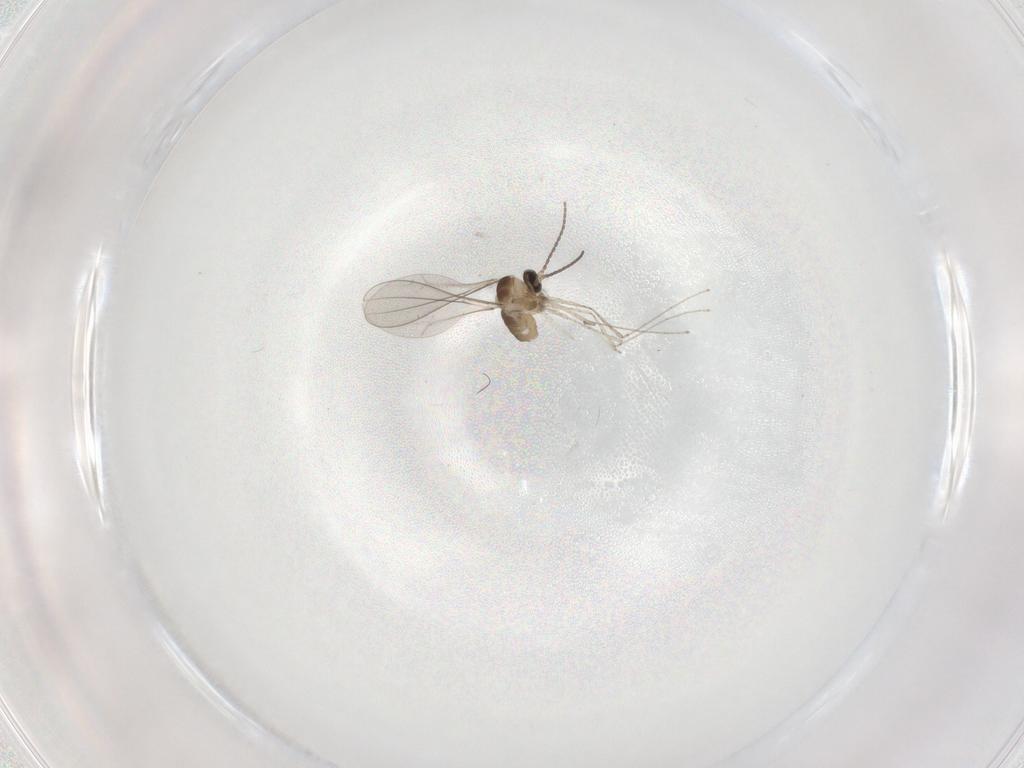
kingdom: Animalia
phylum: Arthropoda
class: Insecta
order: Diptera
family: Cecidomyiidae
